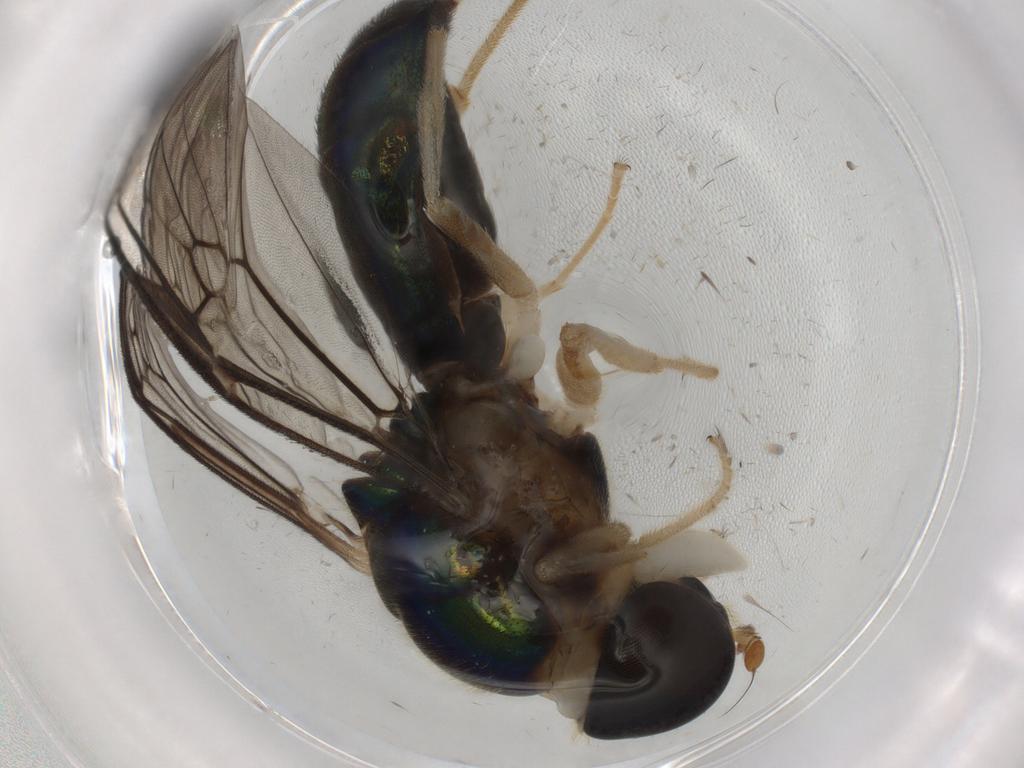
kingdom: Animalia
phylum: Arthropoda
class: Insecta
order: Diptera
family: Phoridae
